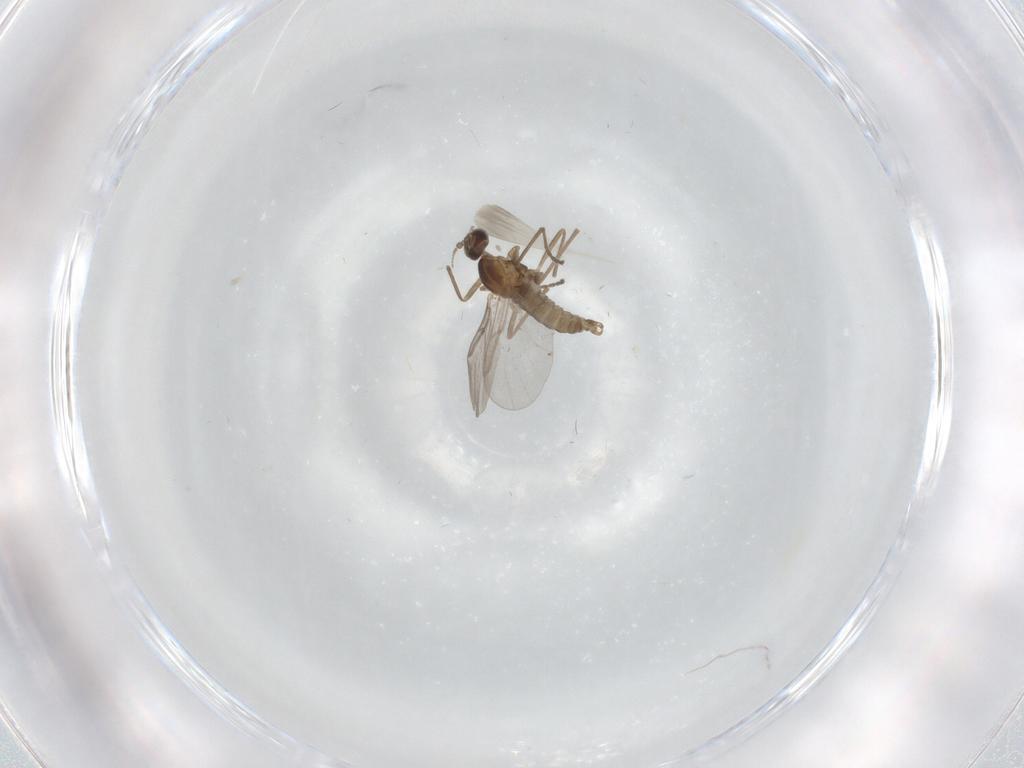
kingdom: Animalia
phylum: Arthropoda
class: Insecta
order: Diptera
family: Cecidomyiidae
